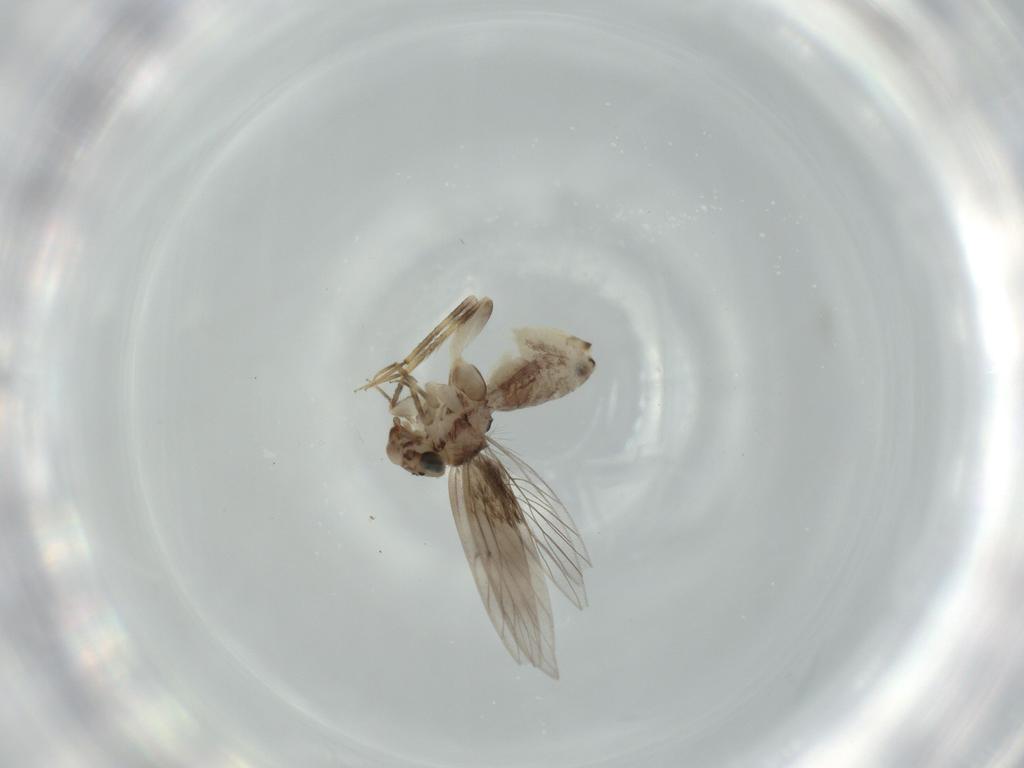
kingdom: Animalia
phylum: Arthropoda
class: Insecta
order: Psocodea
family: Lepidopsocidae
